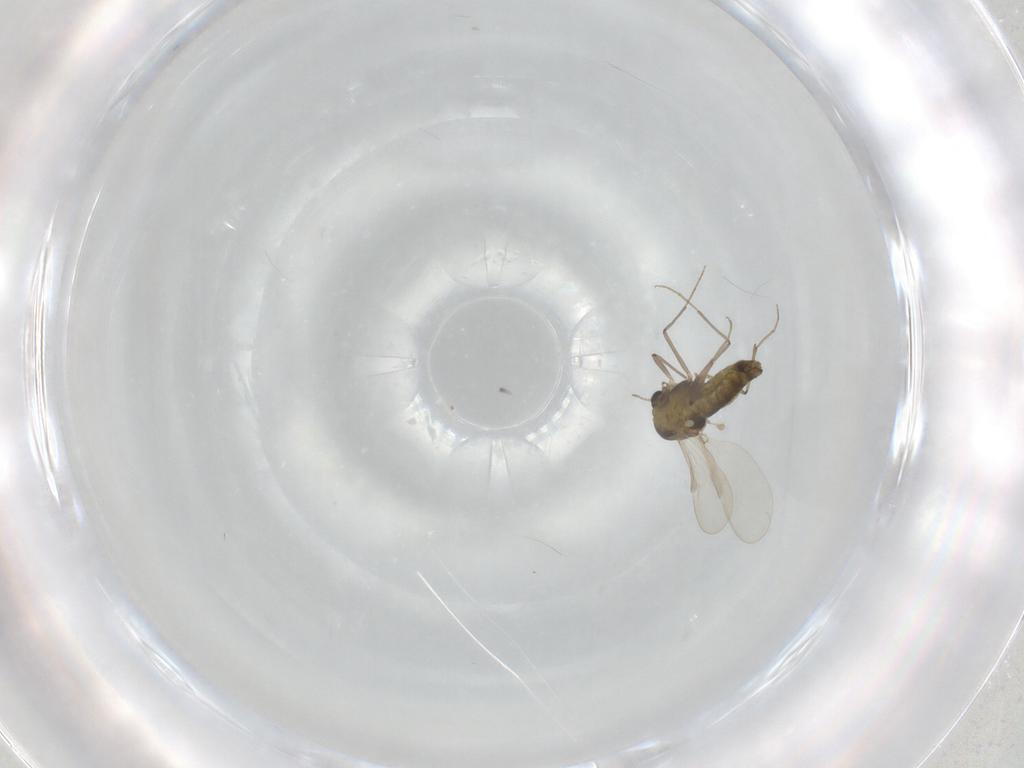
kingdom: Animalia
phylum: Arthropoda
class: Insecta
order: Diptera
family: Chironomidae
